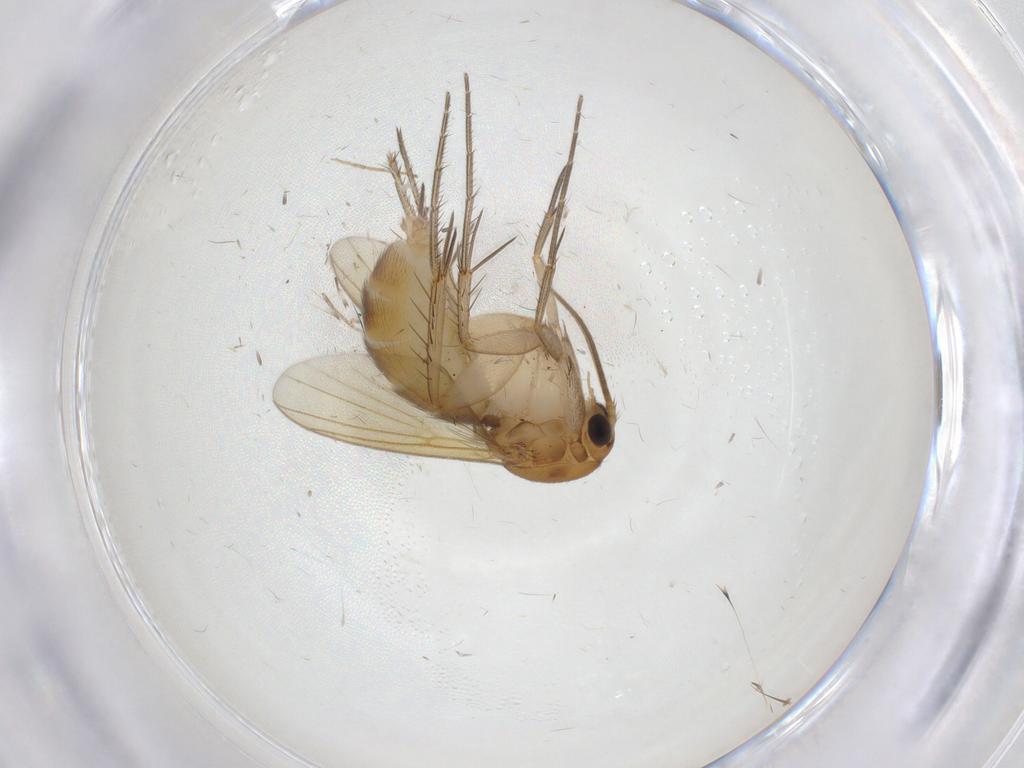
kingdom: Animalia
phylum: Arthropoda
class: Insecta
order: Diptera
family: Mycetophilidae
